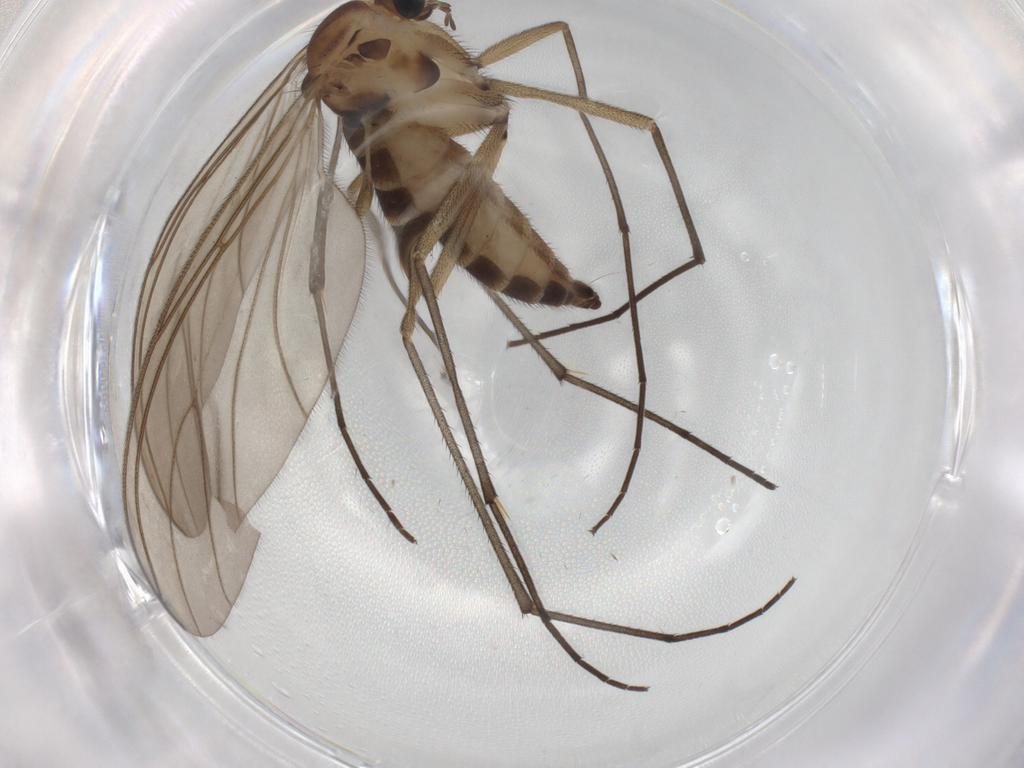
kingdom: Animalia
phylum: Arthropoda
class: Insecta
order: Diptera
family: Sciaridae
